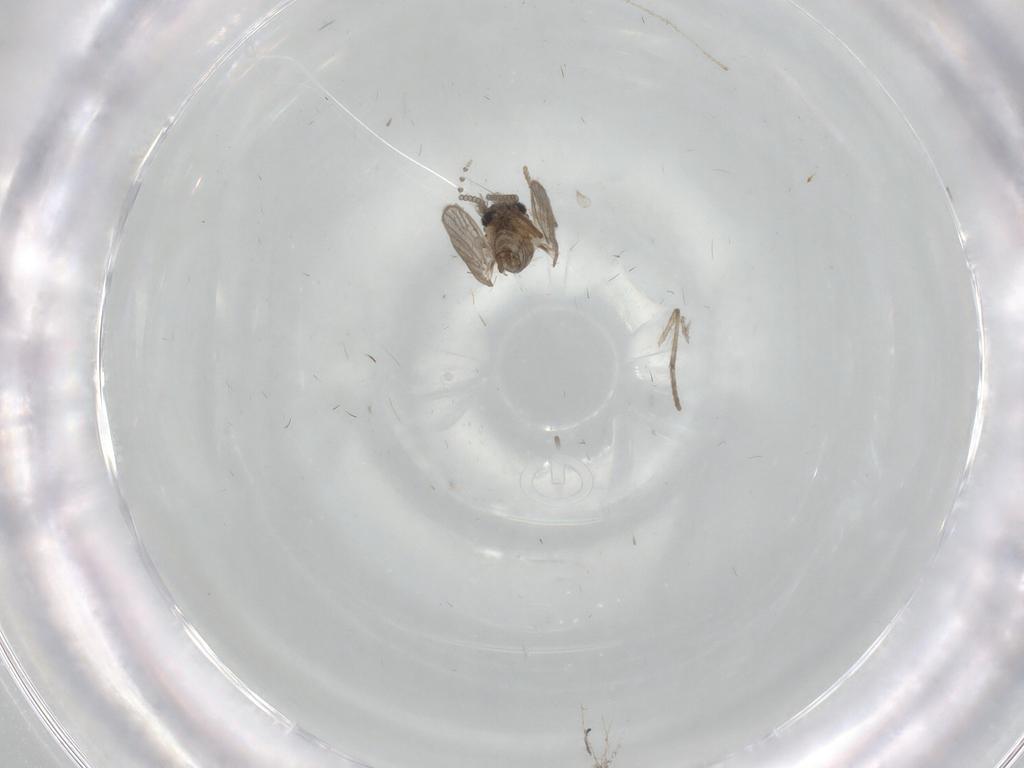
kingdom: Animalia
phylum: Arthropoda
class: Insecta
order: Diptera
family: Psychodidae
